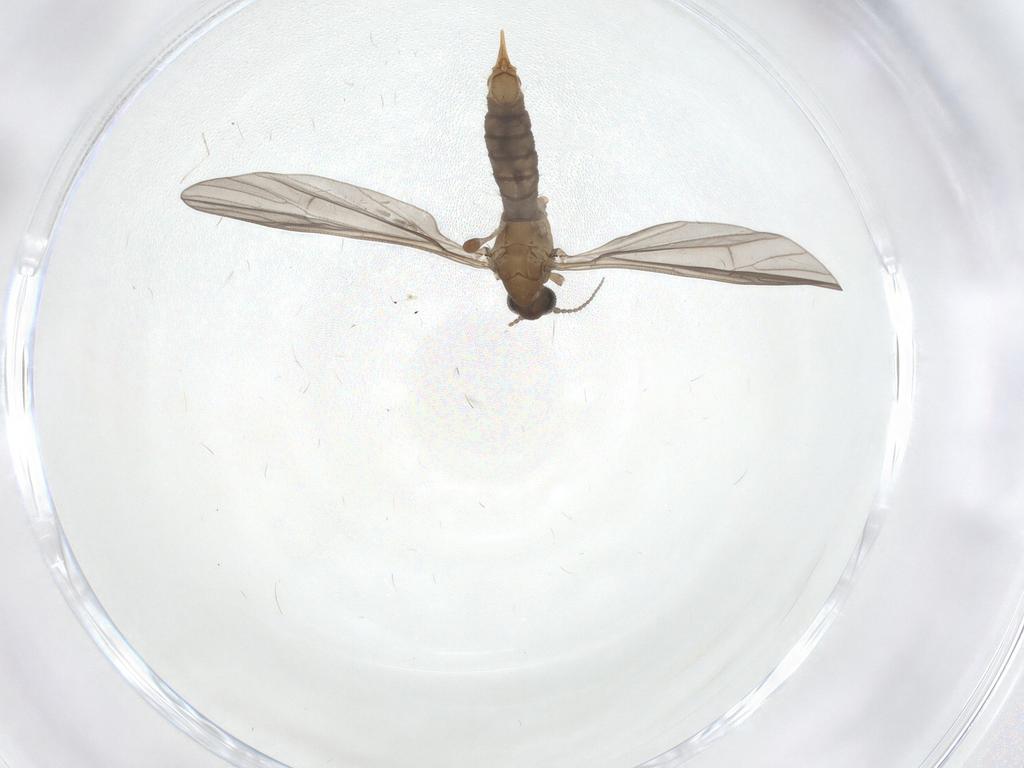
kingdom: Animalia
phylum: Arthropoda
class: Insecta
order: Diptera
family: Limoniidae
